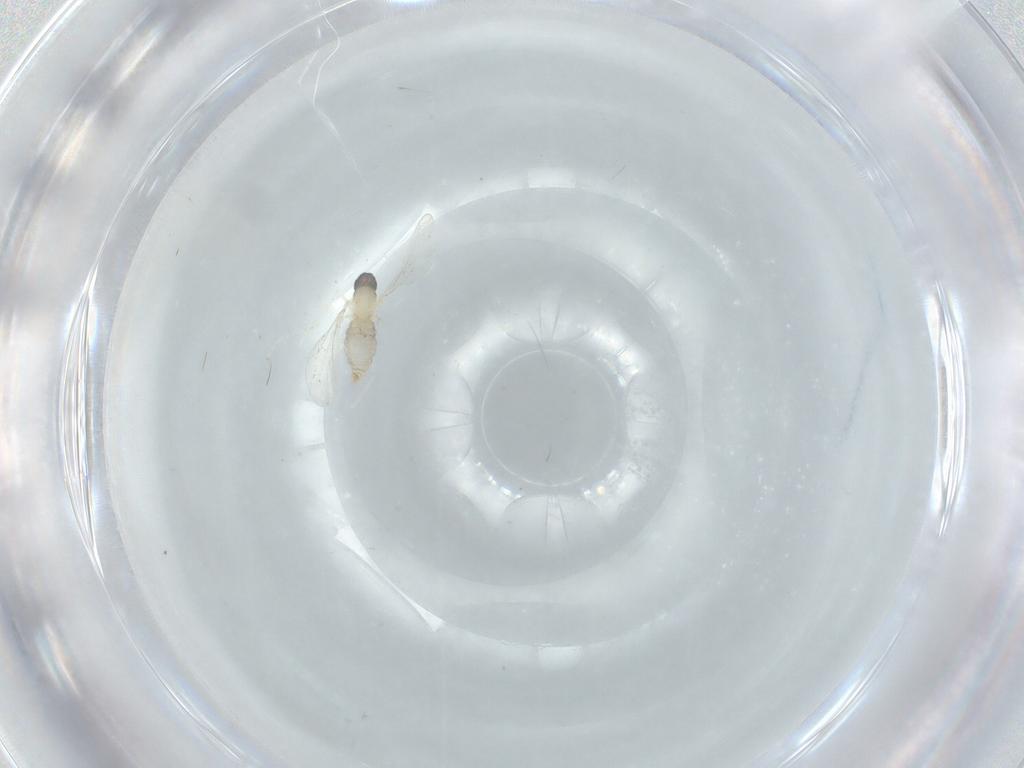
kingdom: Animalia
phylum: Arthropoda
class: Insecta
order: Diptera
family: Cecidomyiidae
